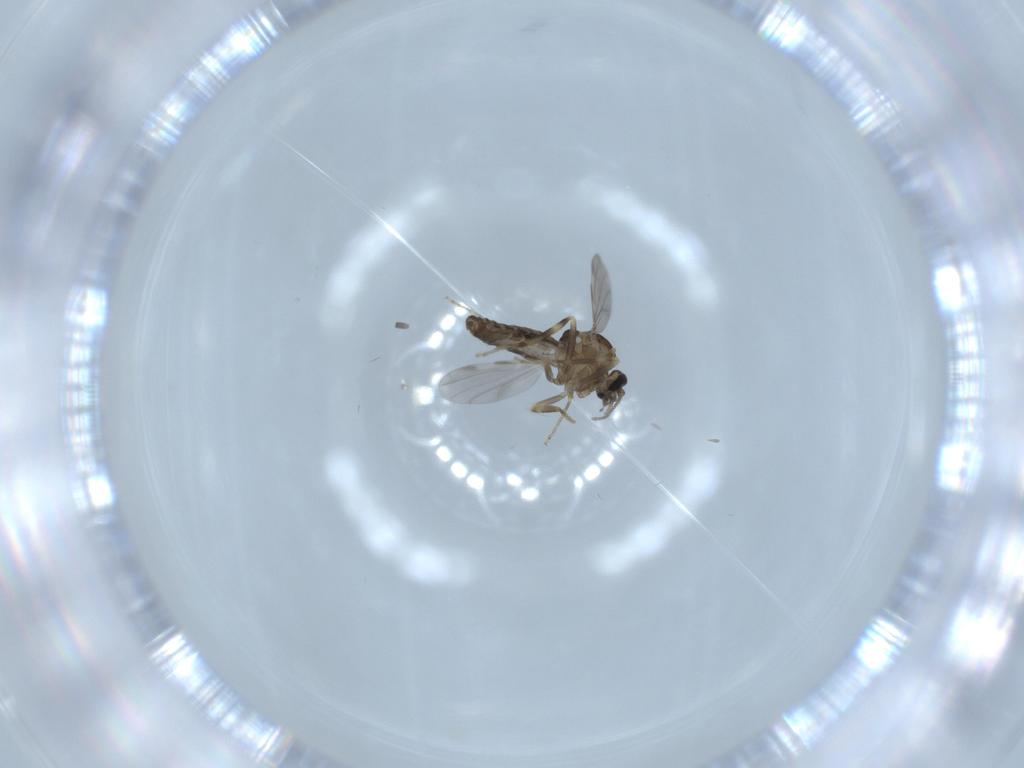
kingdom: Animalia
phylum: Arthropoda
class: Insecta
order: Diptera
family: Ceratopogonidae
